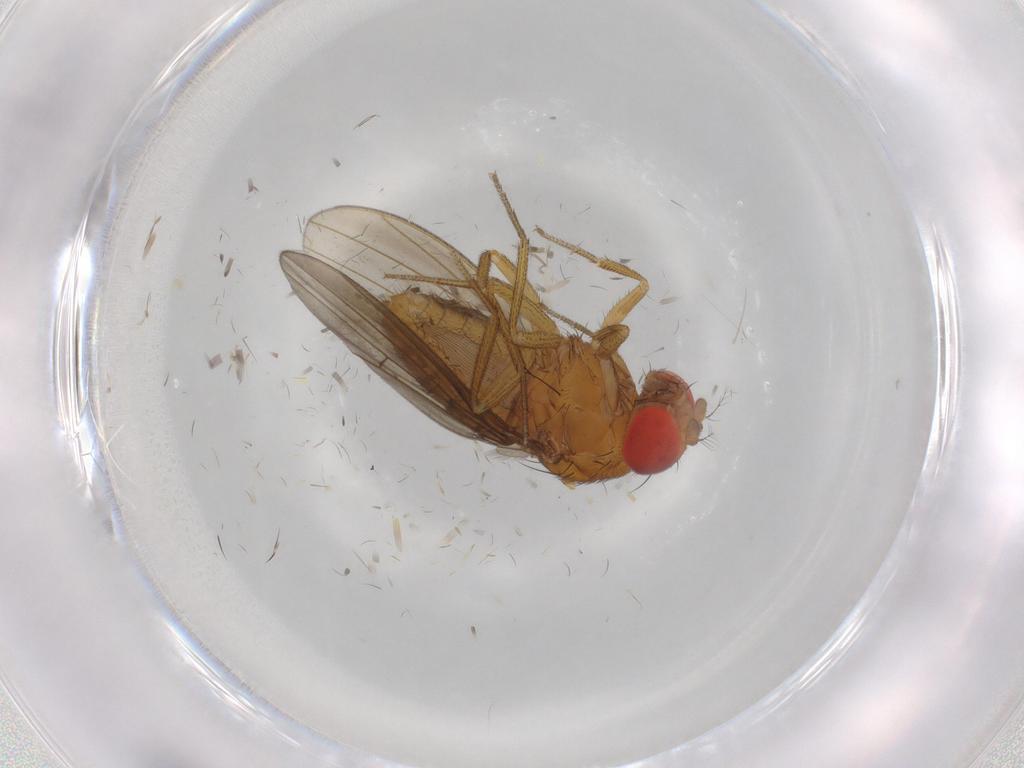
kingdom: Animalia
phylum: Arthropoda
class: Insecta
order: Diptera
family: Drosophilidae
